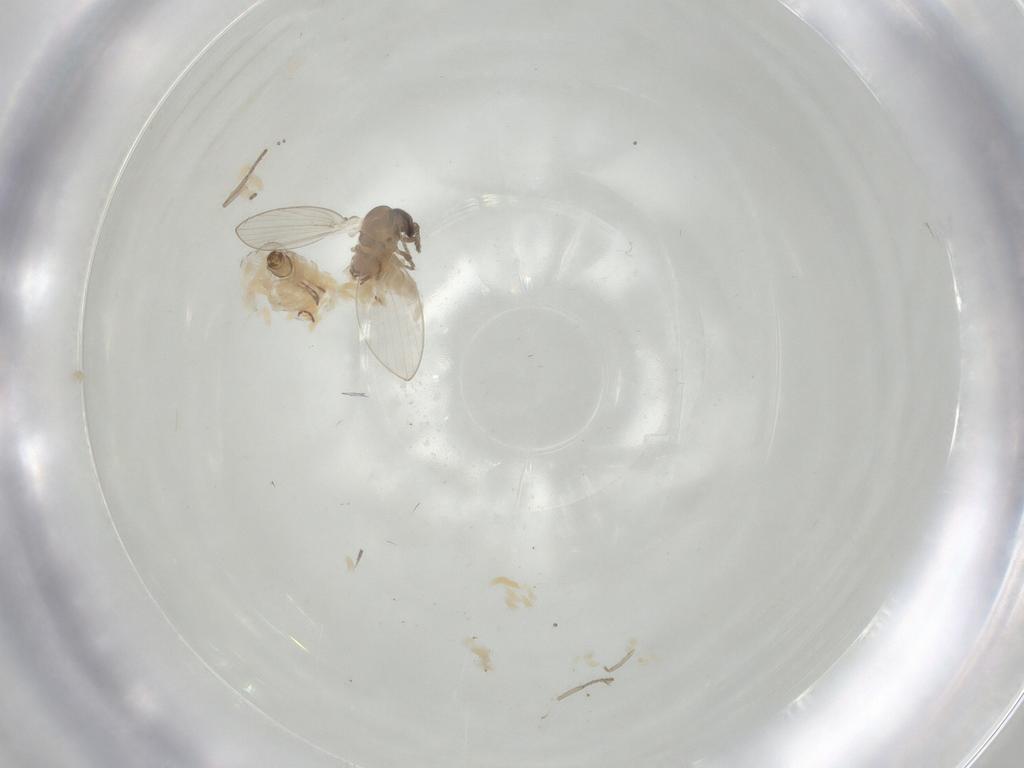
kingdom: Animalia
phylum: Arthropoda
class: Insecta
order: Diptera
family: Psychodidae
